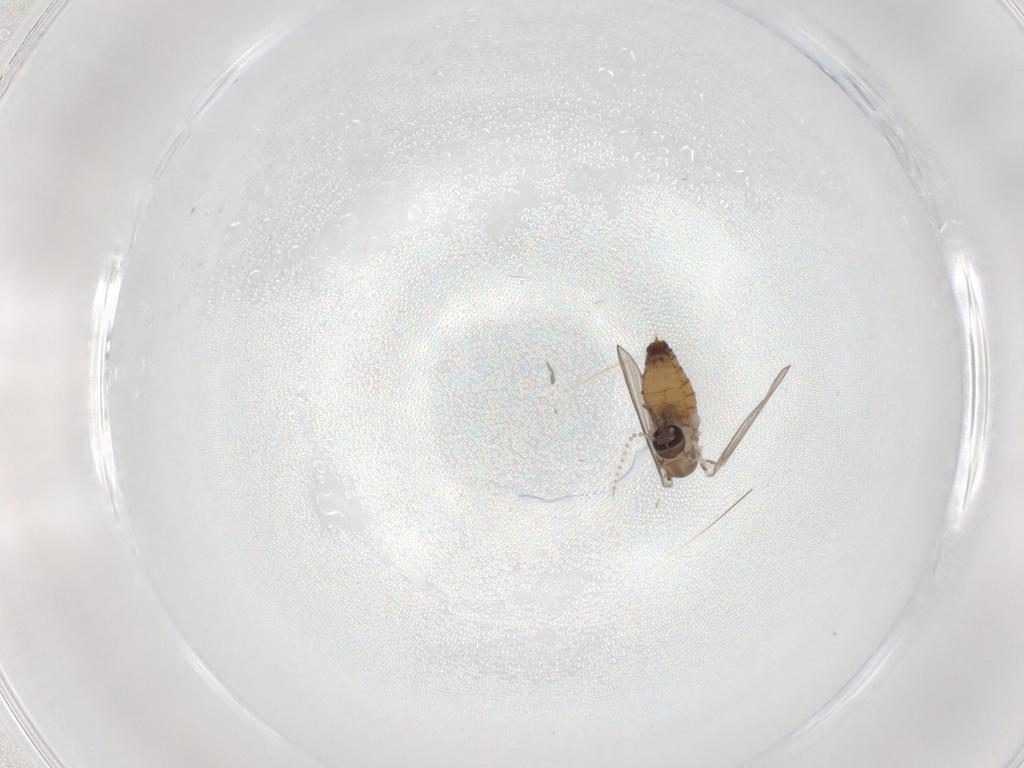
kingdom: Animalia
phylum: Arthropoda
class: Insecta
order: Diptera
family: Psychodidae
